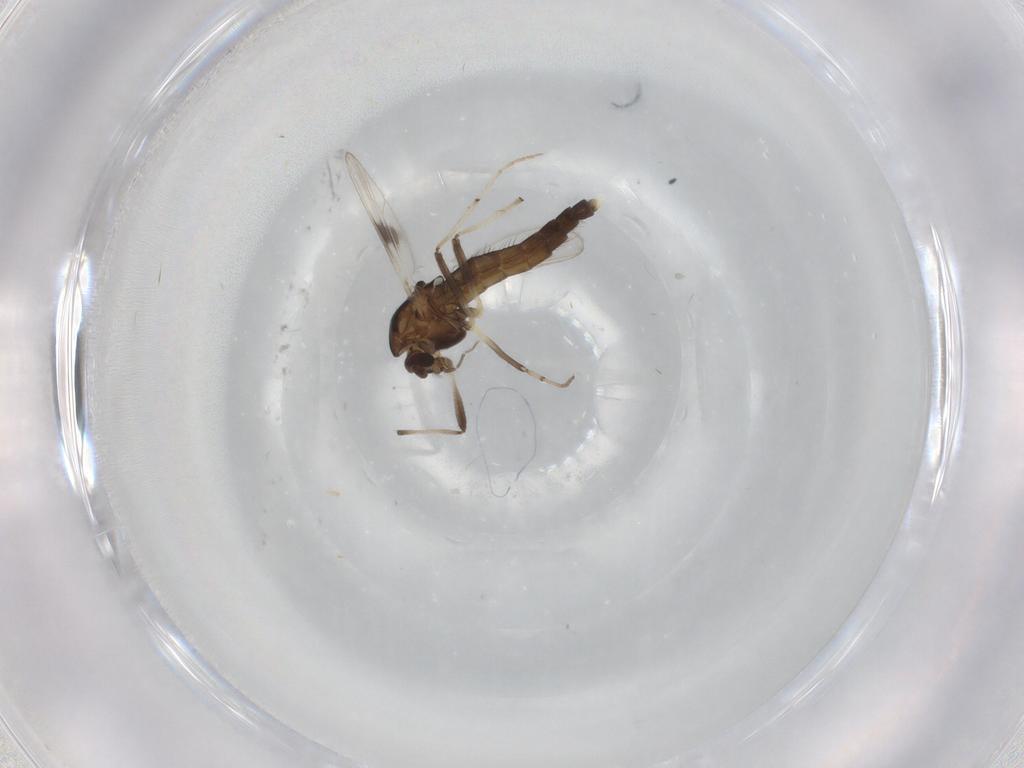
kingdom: Animalia
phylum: Arthropoda
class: Insecta
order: Diptera
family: Chironomidae
